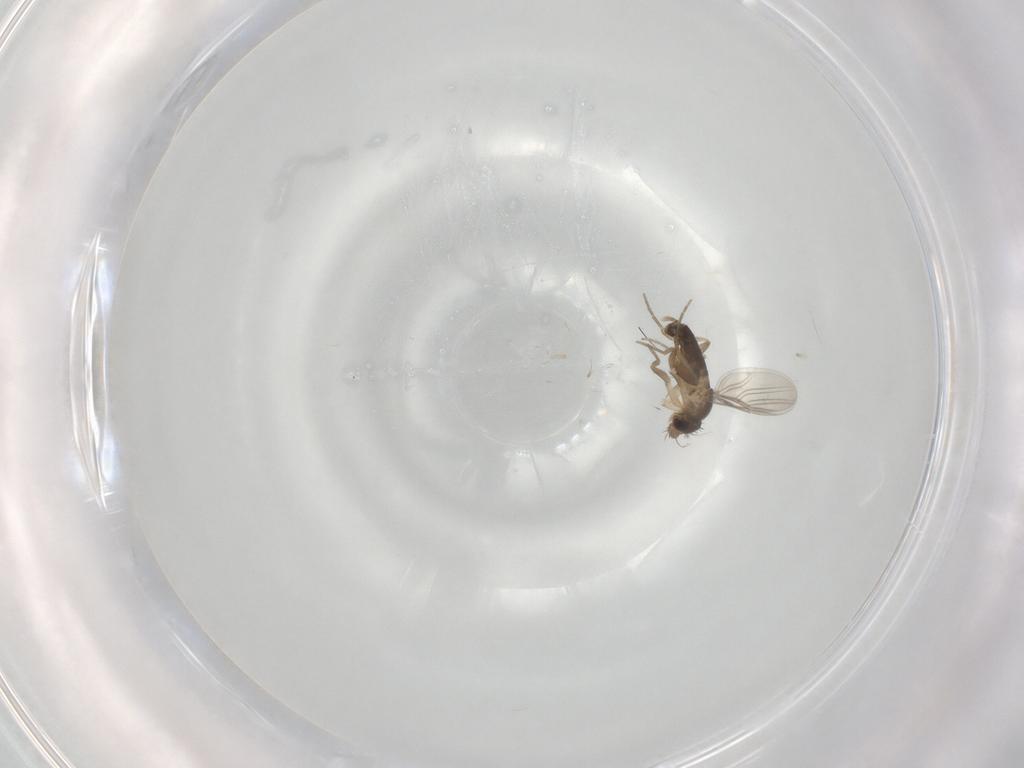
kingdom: Animalia
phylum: Arthropoda
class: Insecta
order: Diptera
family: Phoridae
